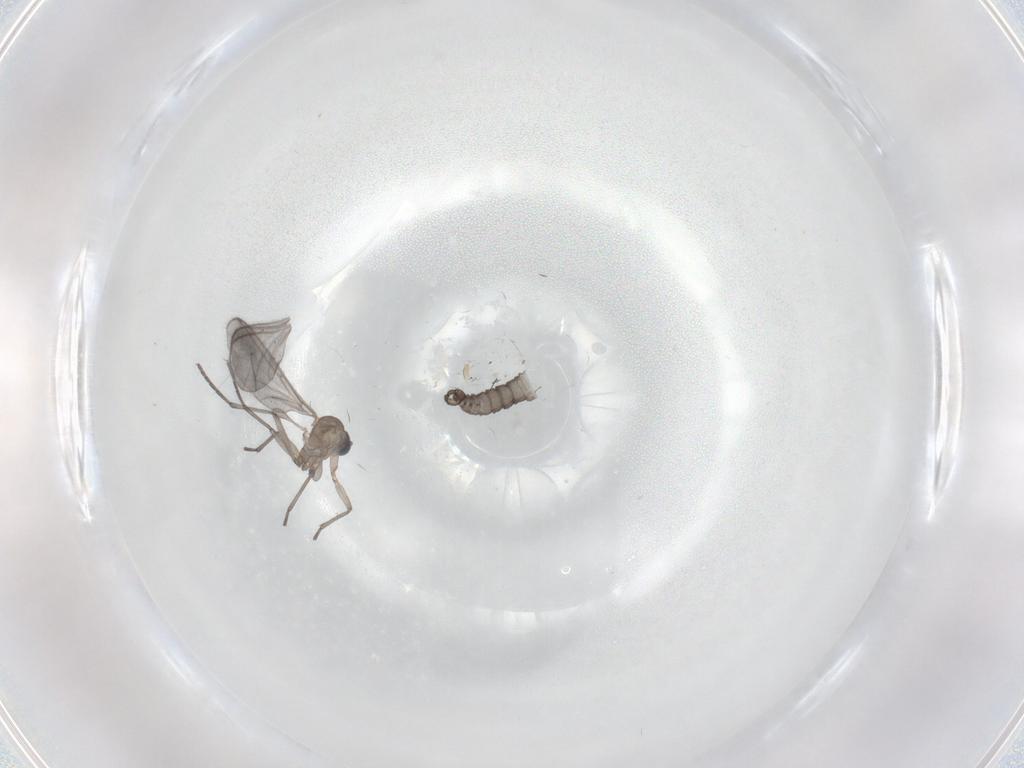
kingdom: Animalia
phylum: Arthropoda
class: Insecta
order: Diptera
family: Sciaridae
